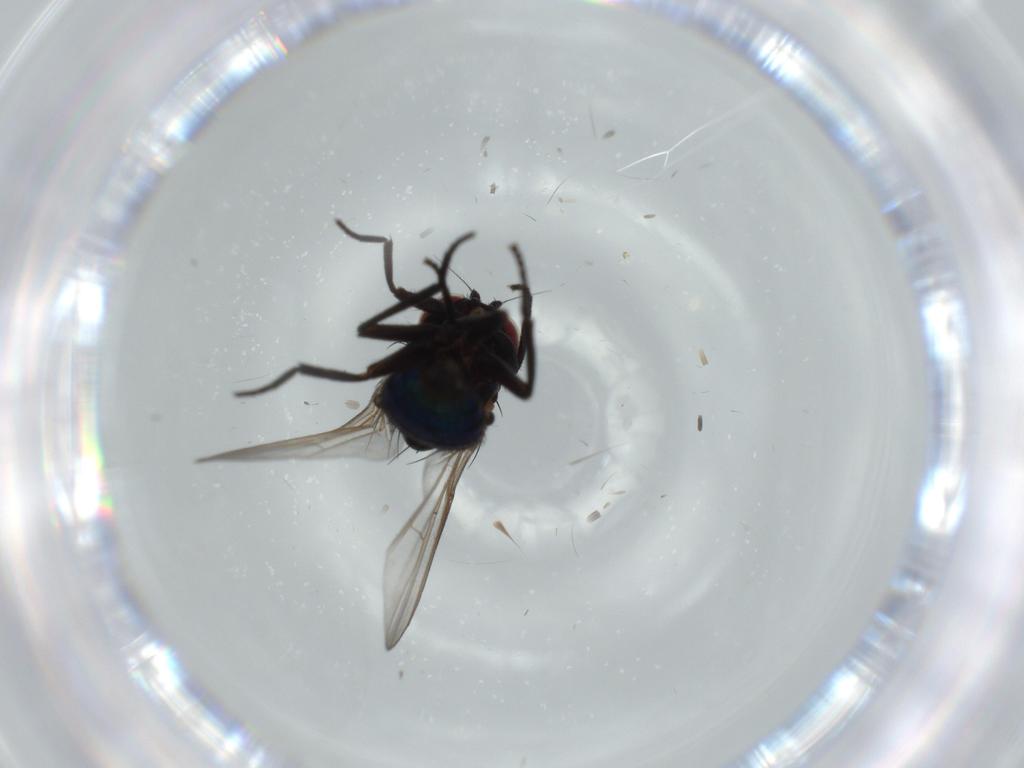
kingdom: Animalia
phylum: Arthropoda
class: Insecta
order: Diptera
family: Agromyzidae
